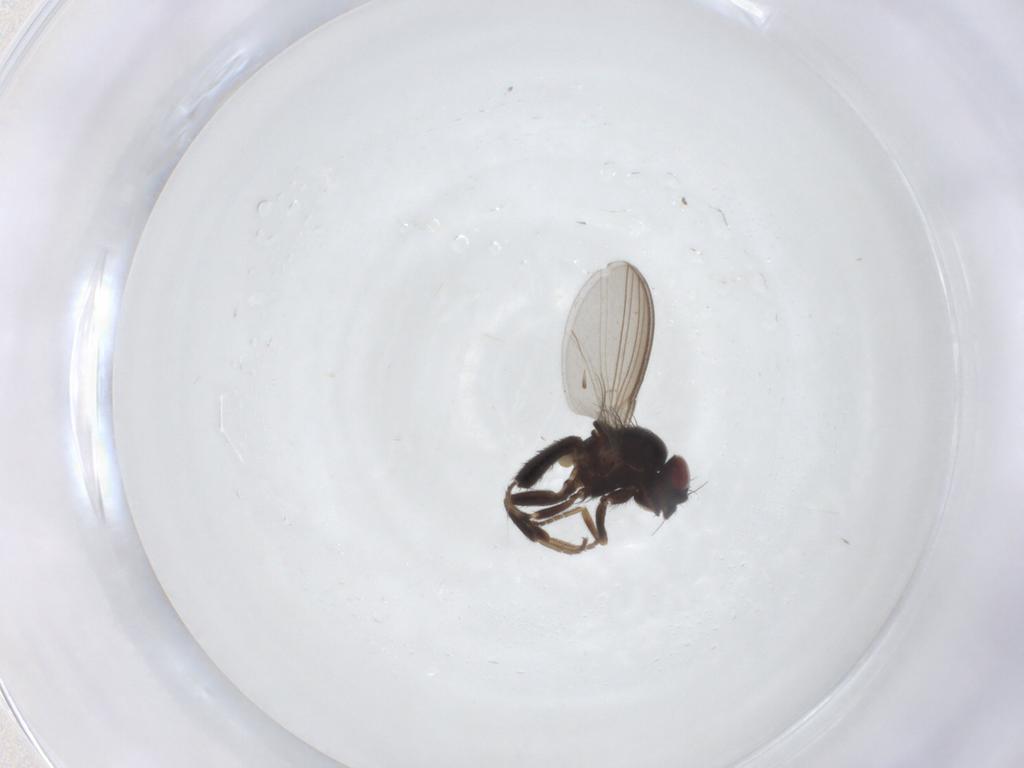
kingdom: Animalia
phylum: Arthropoda
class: Insecta
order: Diptera
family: Milichiidae
